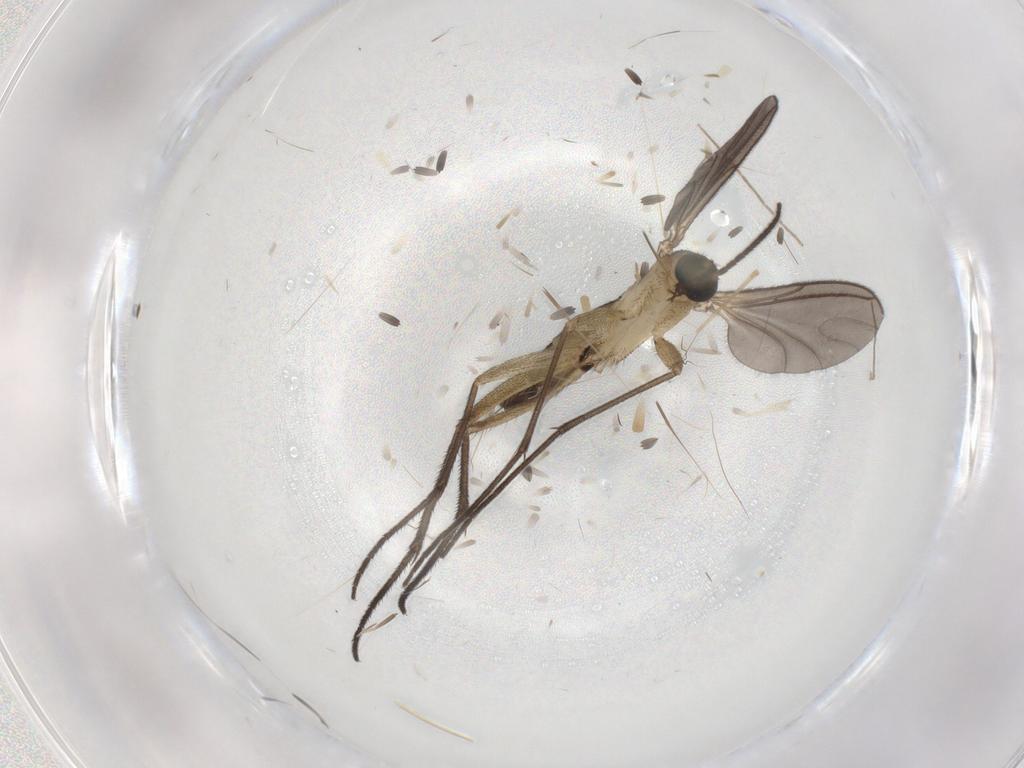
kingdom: Animalia
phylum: Arthropoda
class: Insecta
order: Diptera
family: Sciaridae
